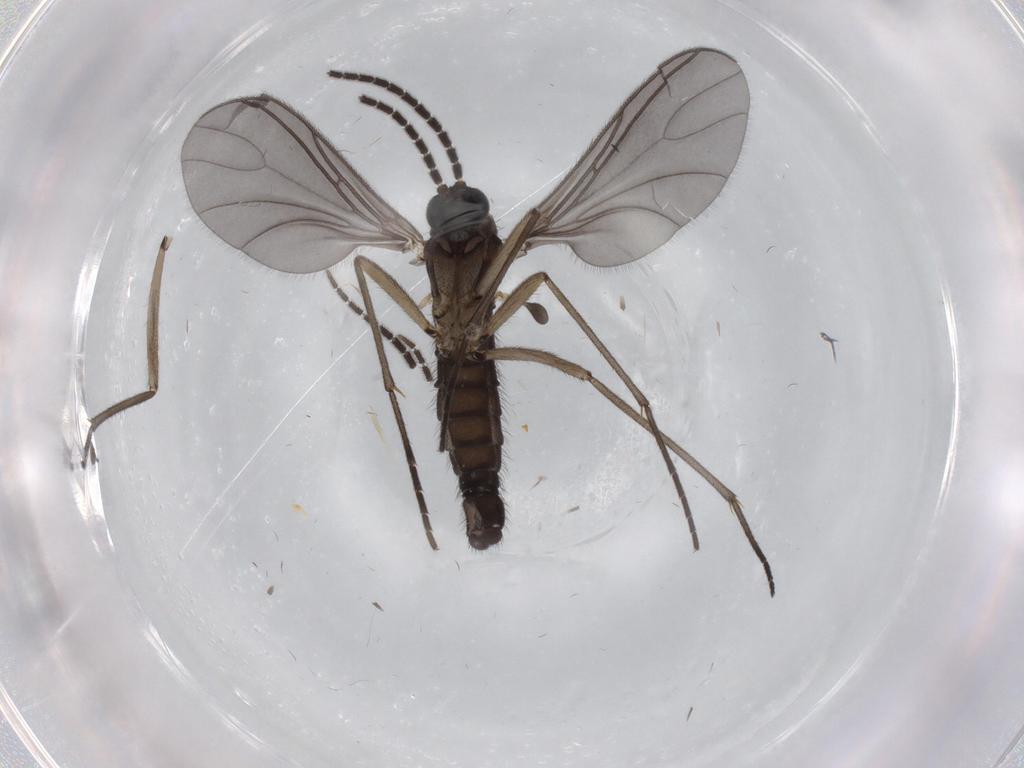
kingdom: Animalia
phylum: Arthropoda
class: Insecta
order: Diptera
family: Sciaridae
